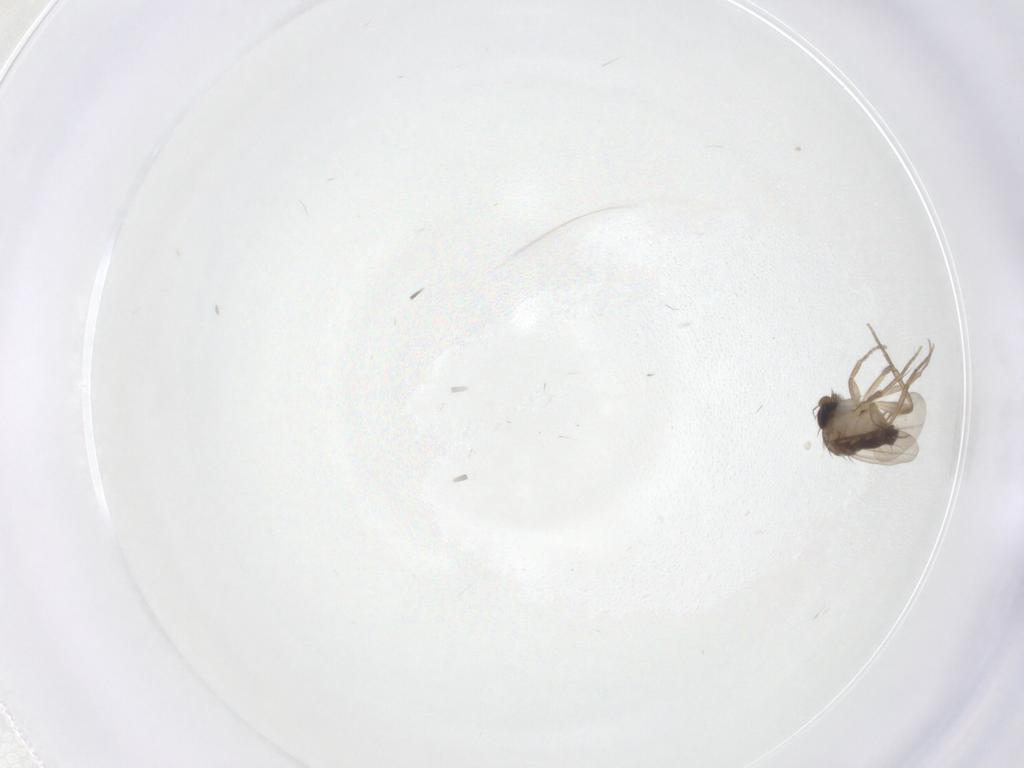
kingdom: Animalia
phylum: Arthropoda
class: Insecta
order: Diptera
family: Phoridae
